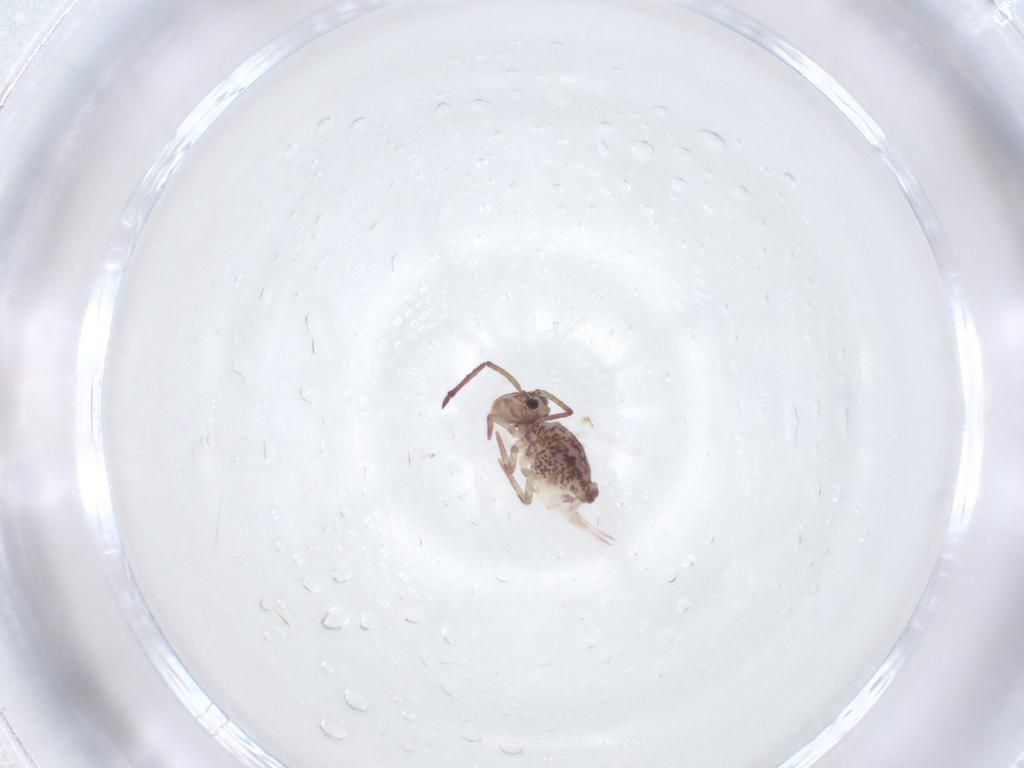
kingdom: Animalia
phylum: Arthropoda
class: Collembola
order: Symphypleona
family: Dicyrtomidae
